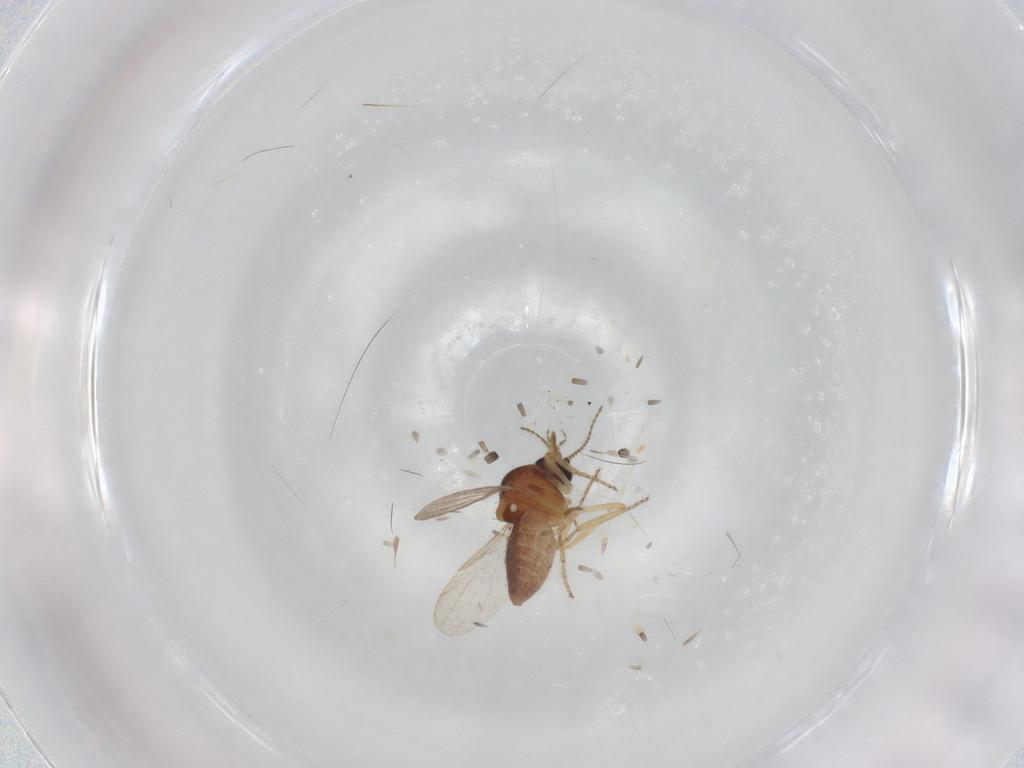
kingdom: Animalia
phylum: Arthropoda
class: Insecta
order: Diptera
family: Ceratopogonidae
